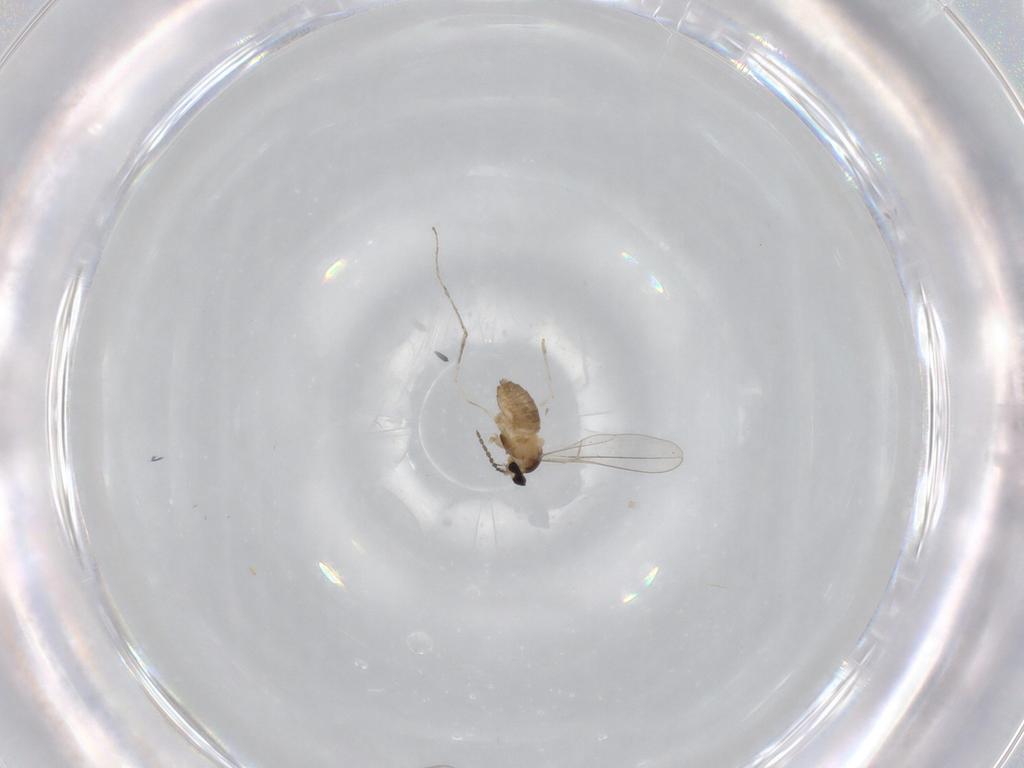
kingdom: Animalia
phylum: Arthropoda
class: Insecta
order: Diptera
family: Cecidomyiidae
